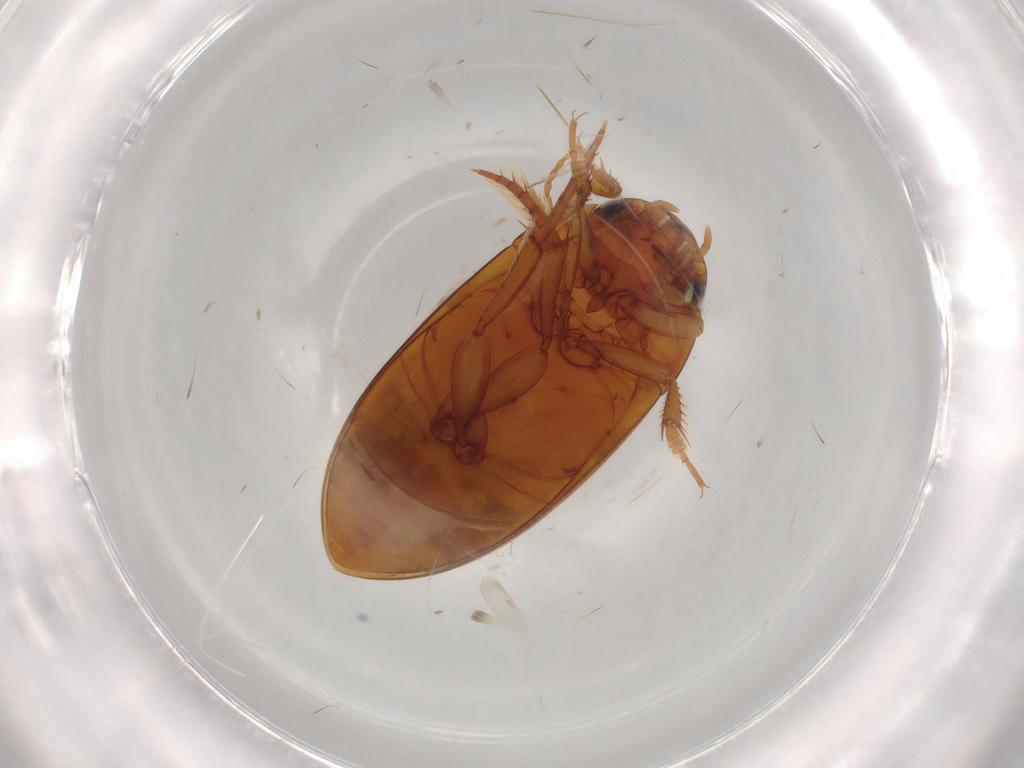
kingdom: Animalia
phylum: Arthropoda
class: Insecta
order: Coleoptera
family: Dytiscidae
